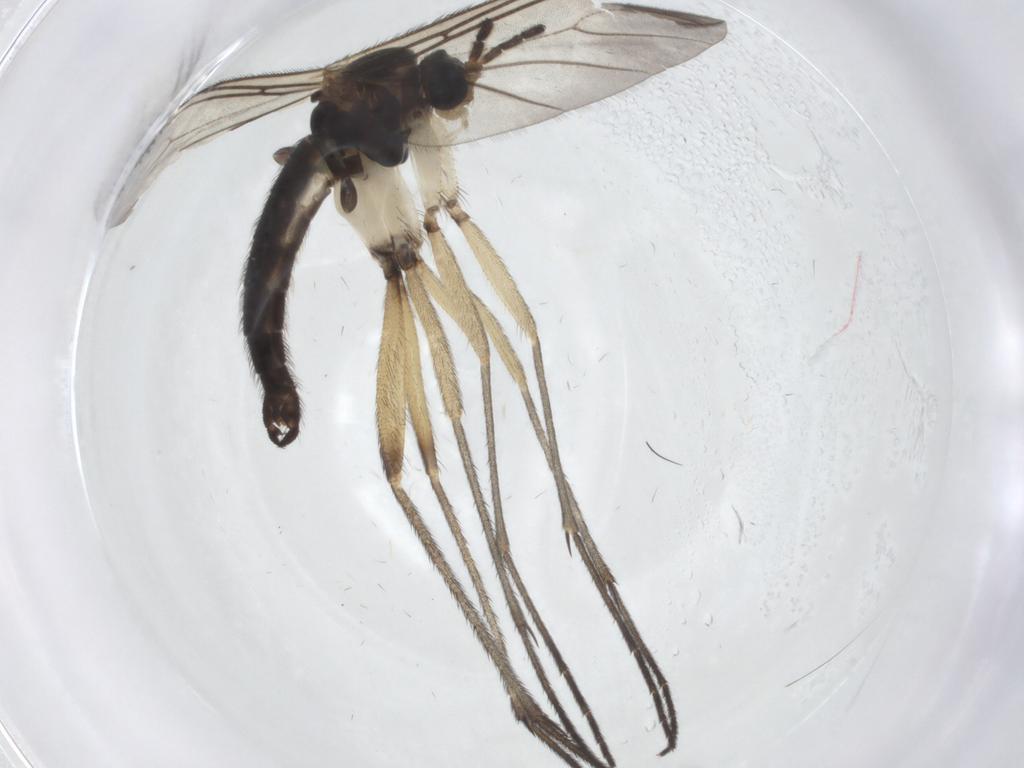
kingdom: Animalia
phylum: Arthropoda
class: Insecta
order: Diptera
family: Sciaridae
